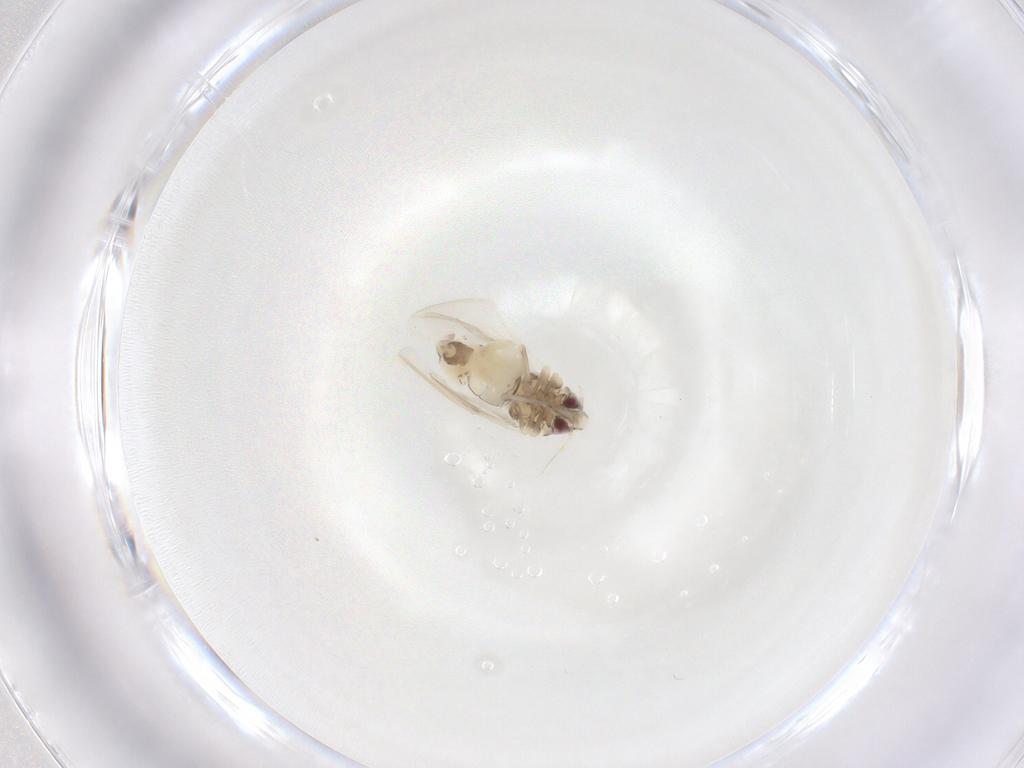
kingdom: Animalia
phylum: Arthropoda
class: Insecta
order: Hemiptera
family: Aleyrodidae
